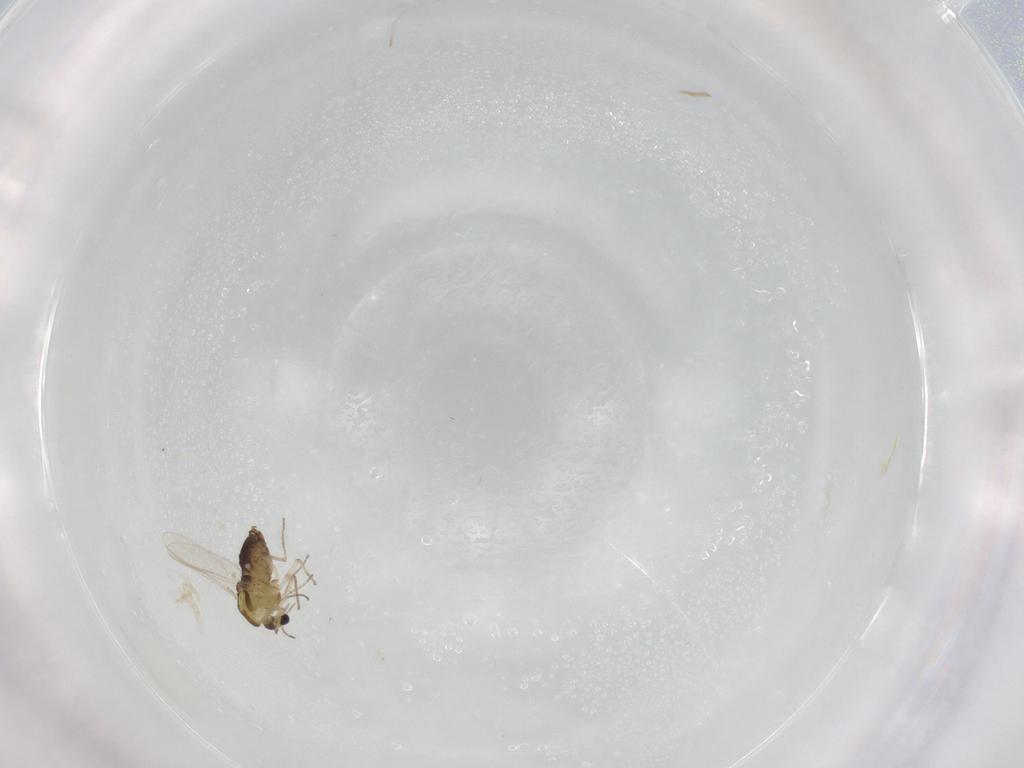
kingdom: Animalia
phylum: Arthropoda
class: Insecta
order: Diptera
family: Chironomidae
